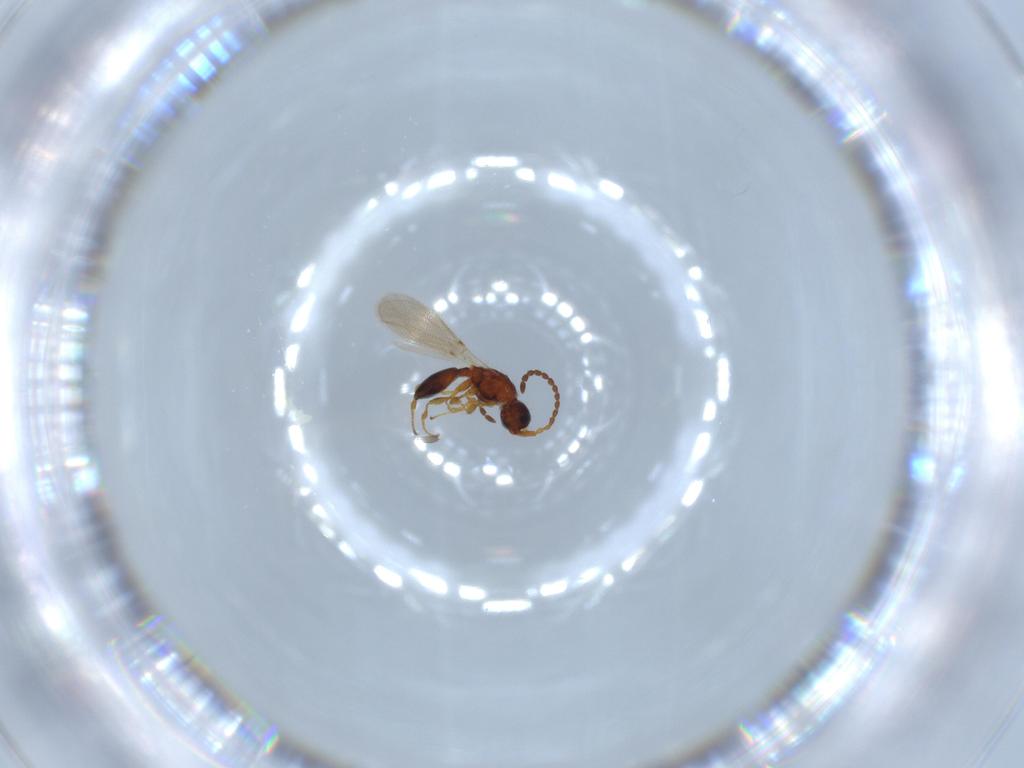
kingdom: Animalia
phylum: Arthropoda
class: Insecta
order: Hymenoptera
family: Diapriidae
